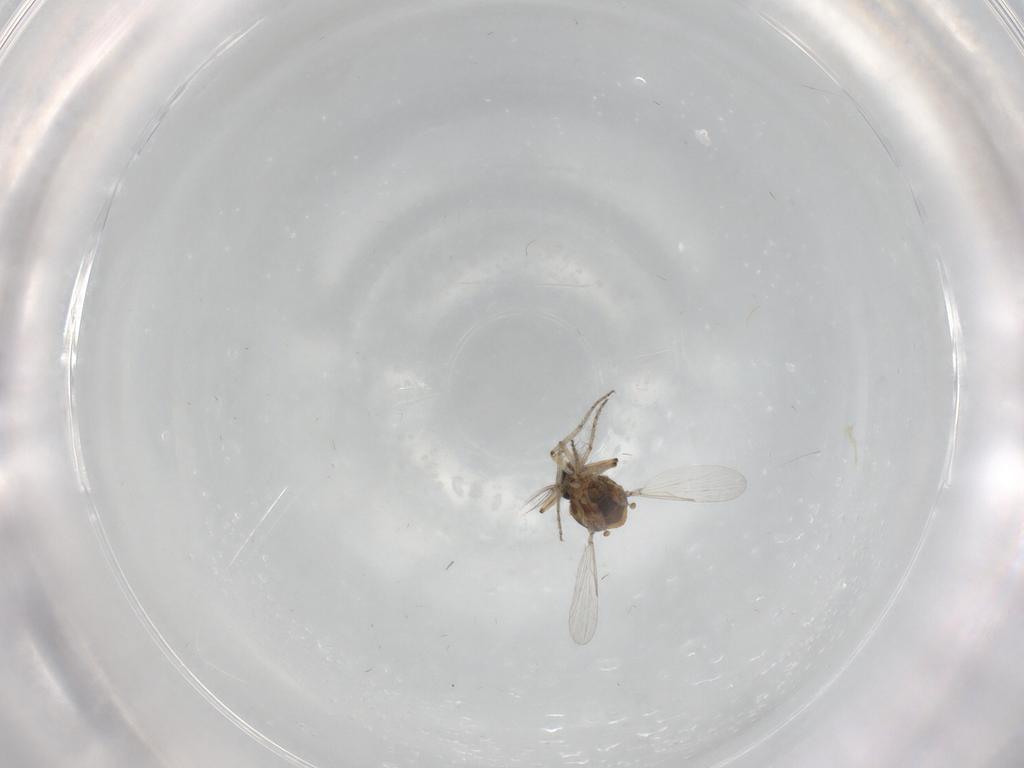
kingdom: Animalia
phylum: Arthropoda
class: Insecta
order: Diptera
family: Ceratopogonidae
